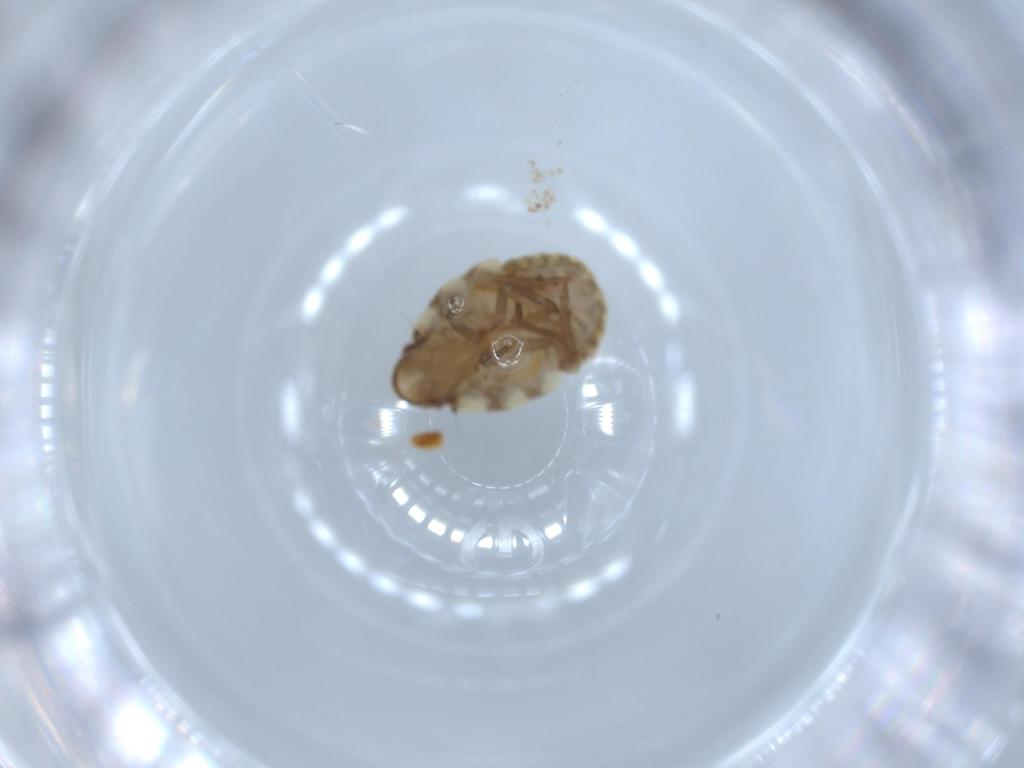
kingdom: Animalia
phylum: Arthropoda
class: Insecta
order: Hemiptera
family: Flatidae
